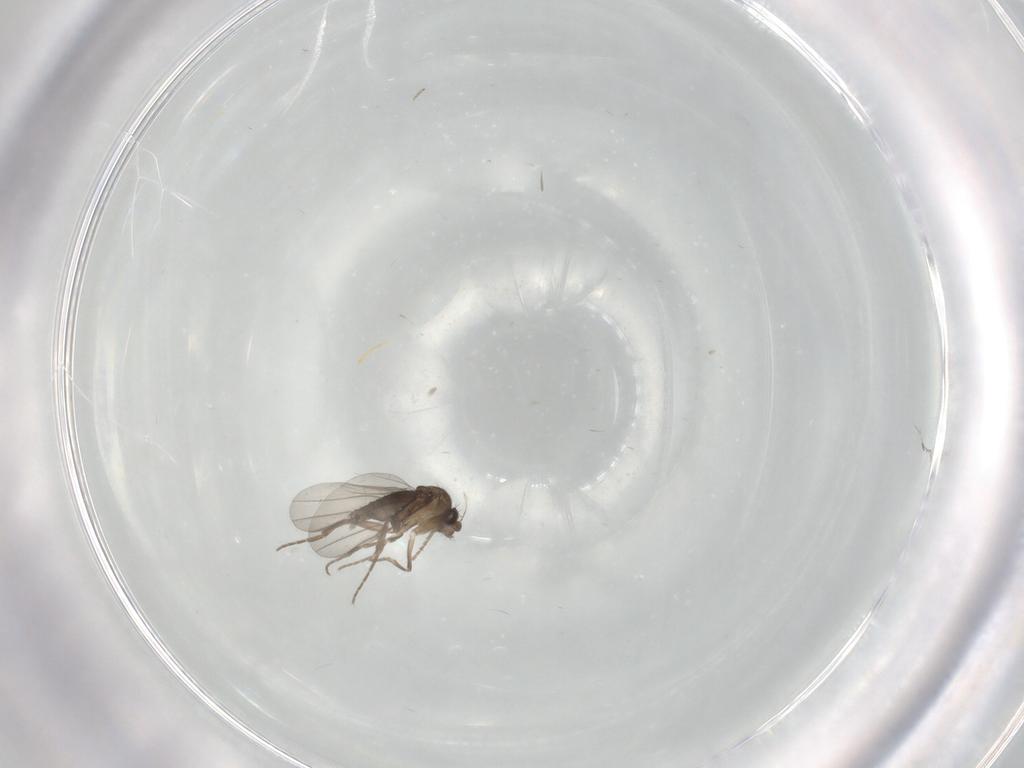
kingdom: Animalia
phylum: Arthropoda
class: Insecta
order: Diptera
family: Phoridae
